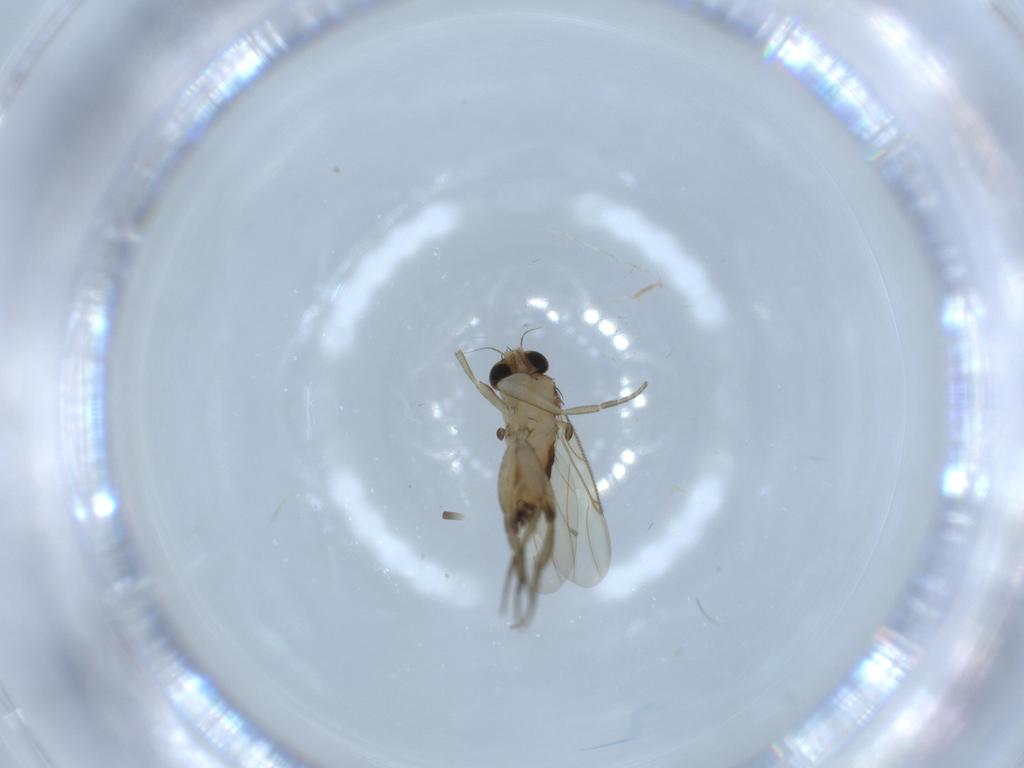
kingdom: Animalia
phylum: Arthropoda
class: Insecta
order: Diptera
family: Phoridae
